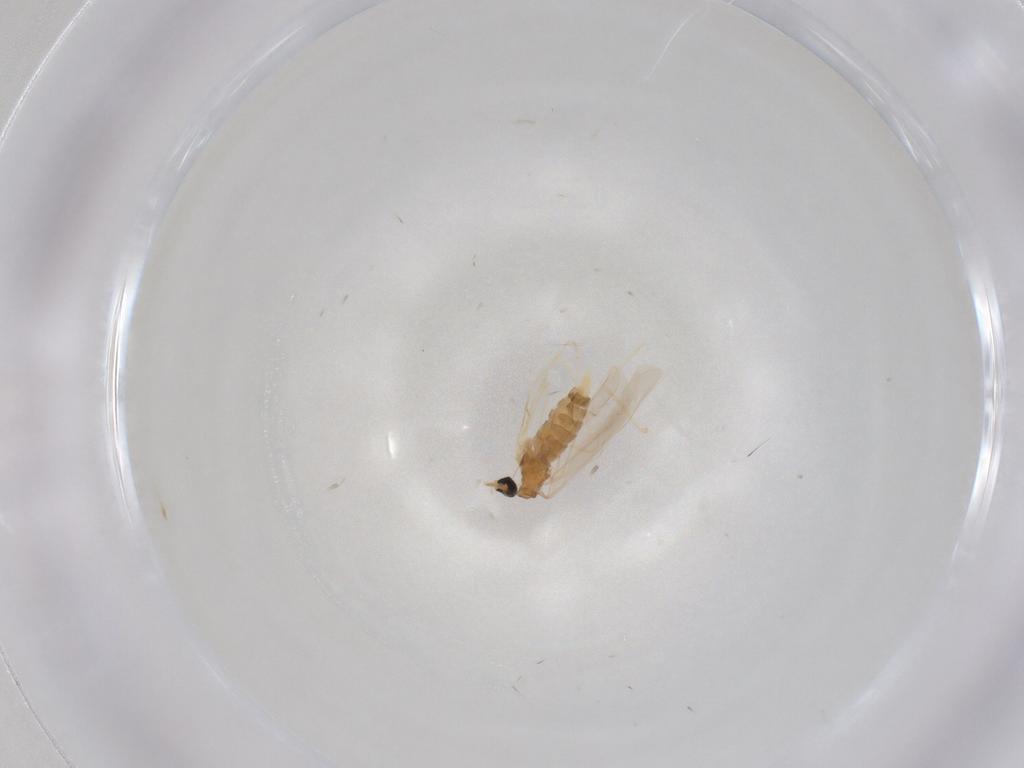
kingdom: Animalia
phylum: Arthropoda
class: Insecta
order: Diptera
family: Cecidomyiidae
